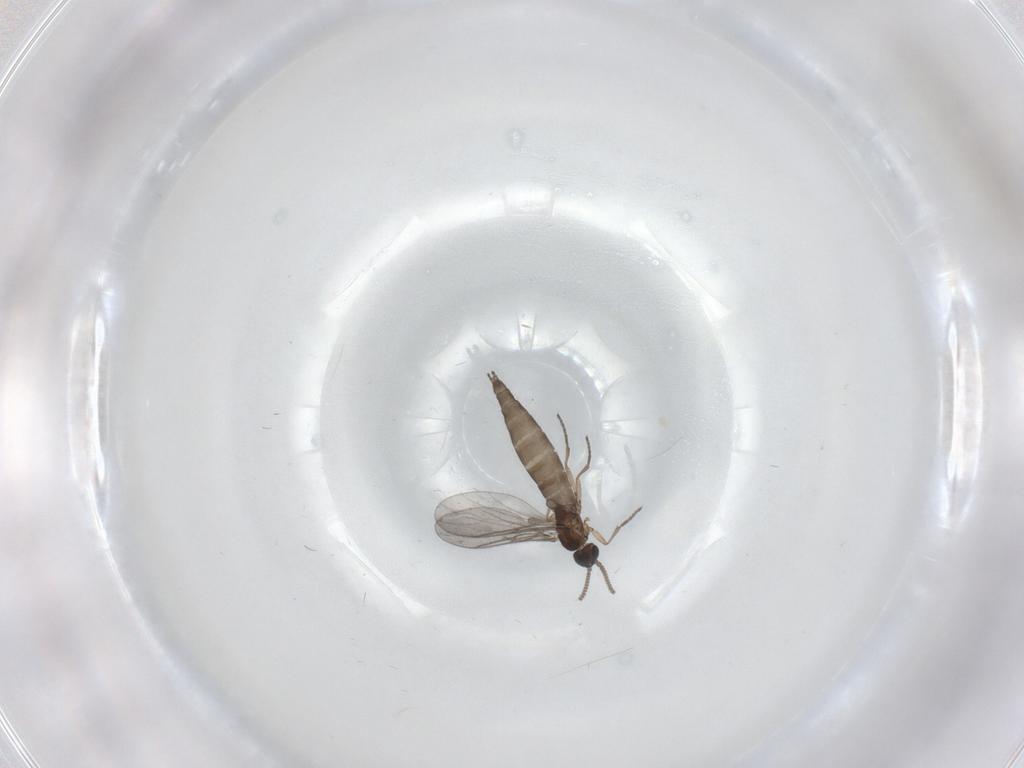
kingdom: Animalia
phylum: Arthropoda
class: Insecta
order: Diptera
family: Sciaridae
